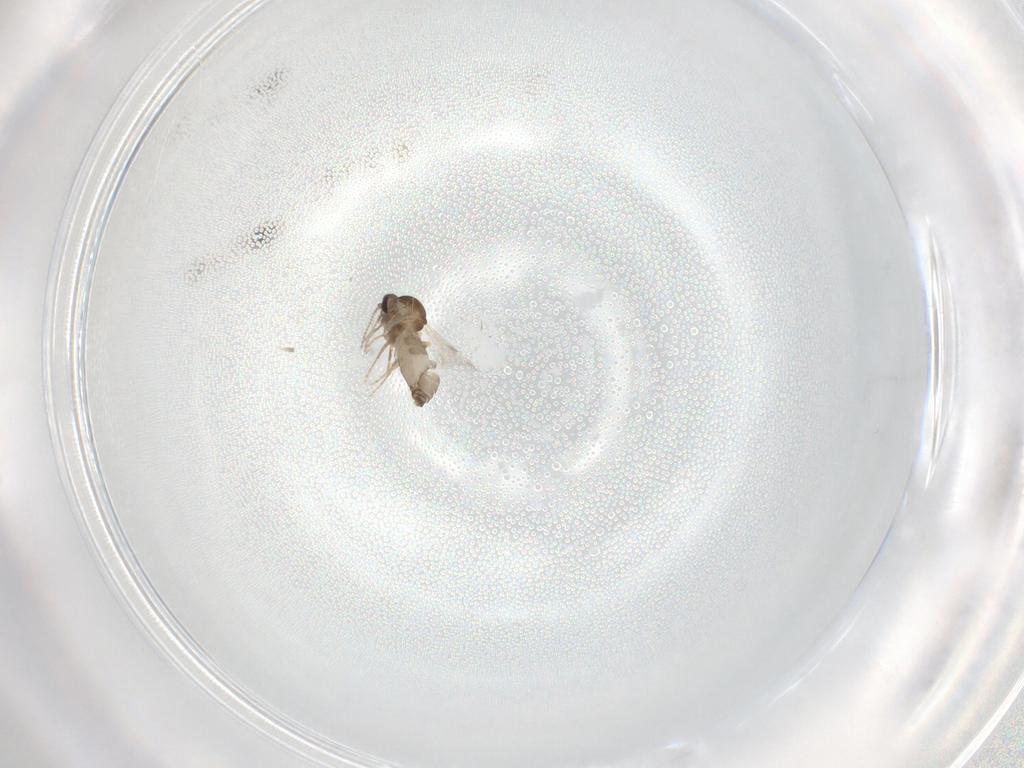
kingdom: Animalia
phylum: Arthropoda
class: Insecta
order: Diptera
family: Ceratopogonidae
